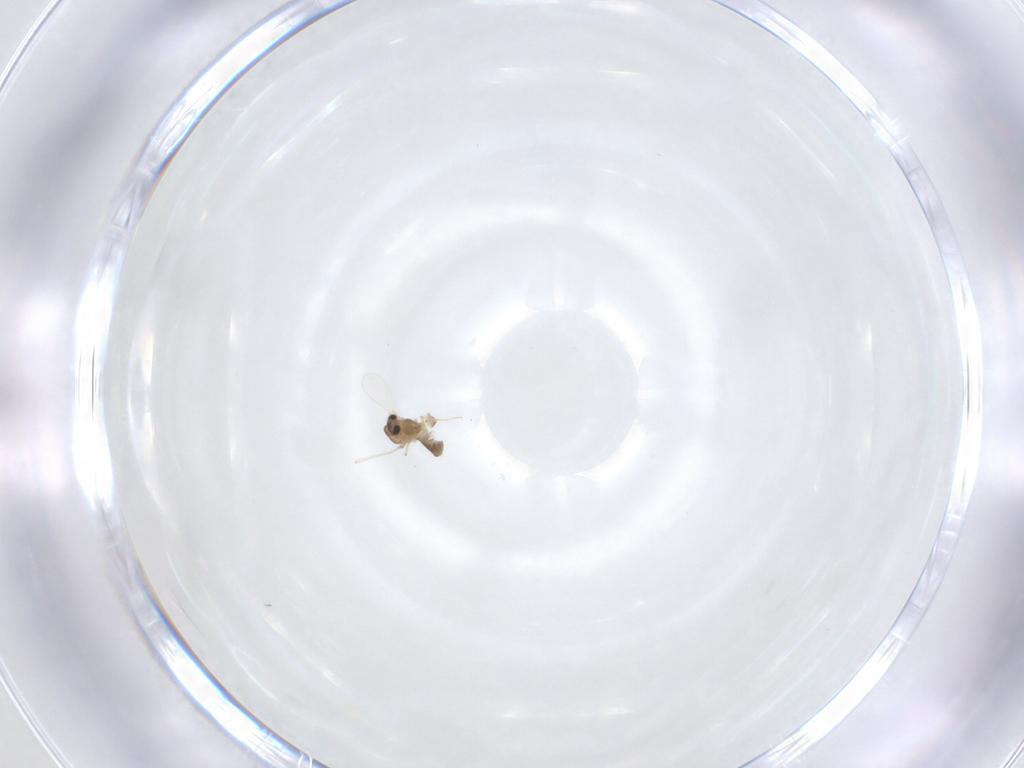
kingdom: Animalia
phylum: Arthropoda
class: Insecta
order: Diptera
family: Chironomidae
